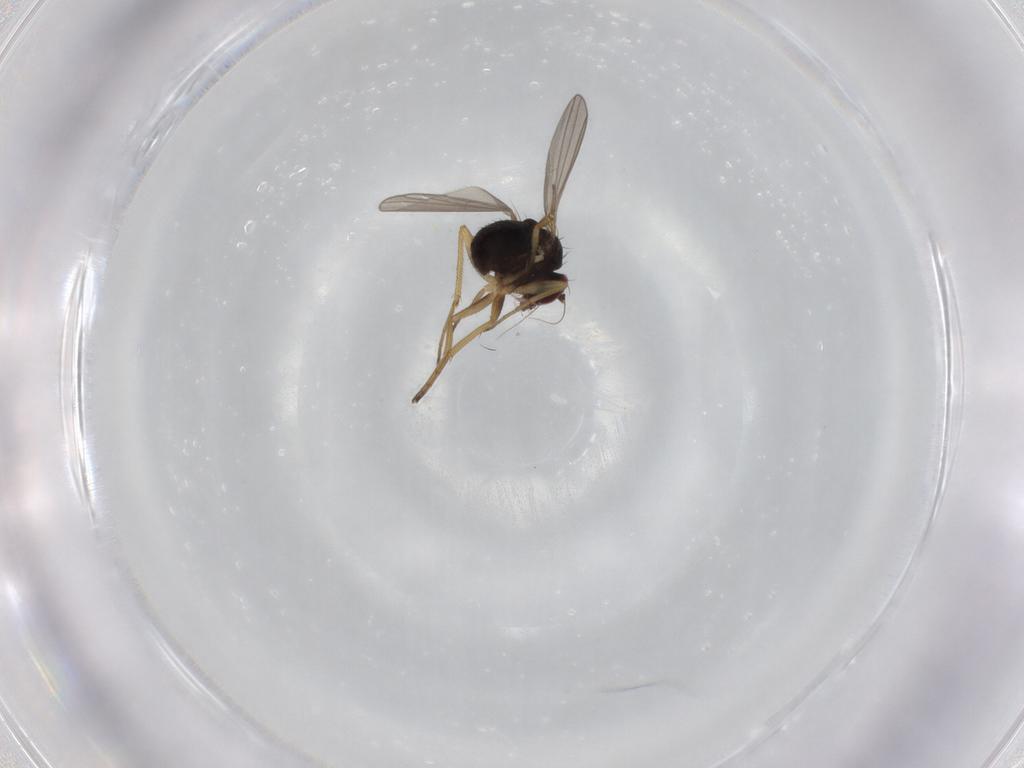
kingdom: Animalia
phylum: Arthropoda
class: Insecta
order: Diptera
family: Dolichopodidae
